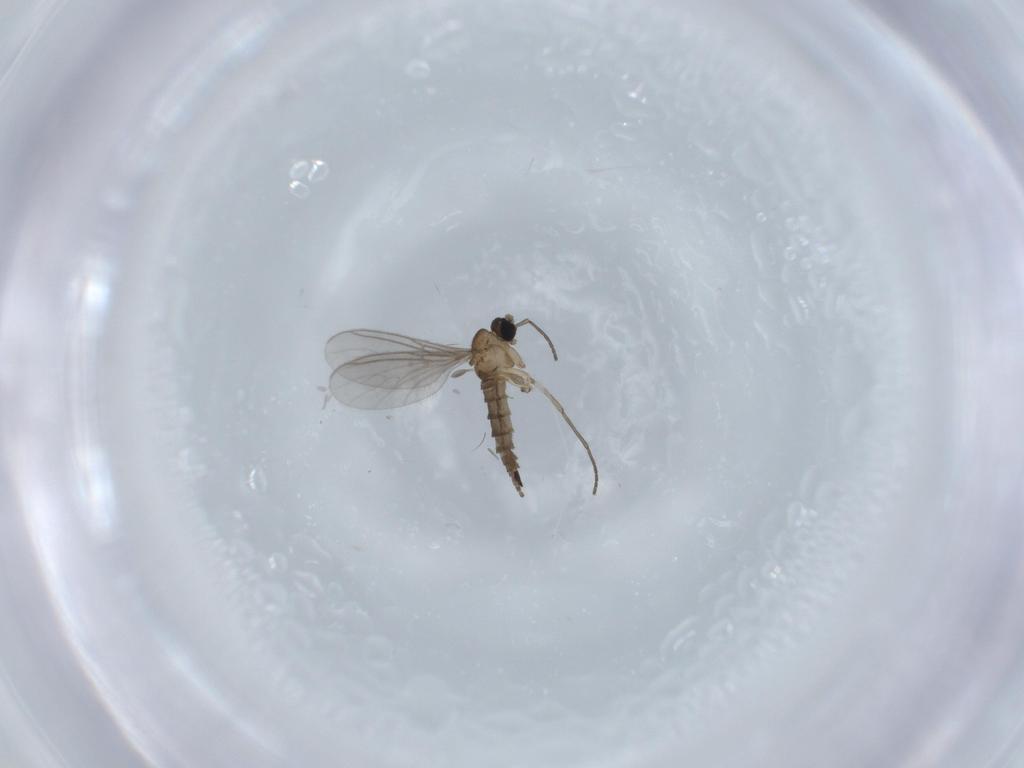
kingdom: Animalia
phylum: Arthropoda
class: Insecta
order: Diptera
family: Sciaridae
